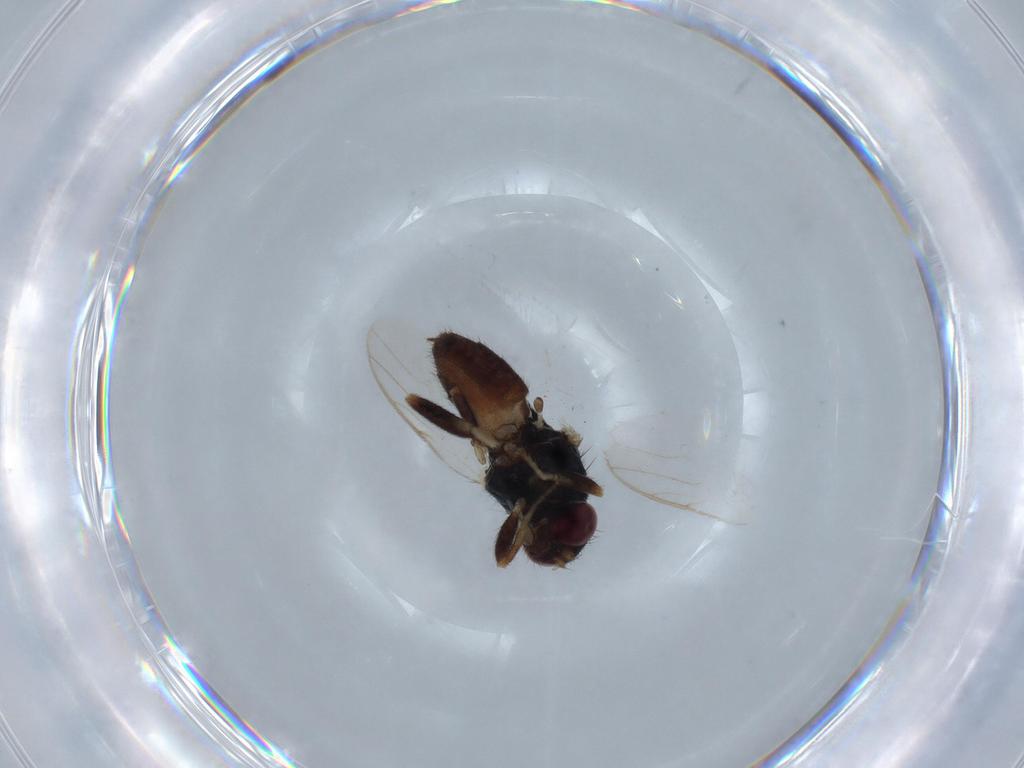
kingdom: Animalia
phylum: Arthropoda
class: Insecta
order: Diptera
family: Chloropidae
